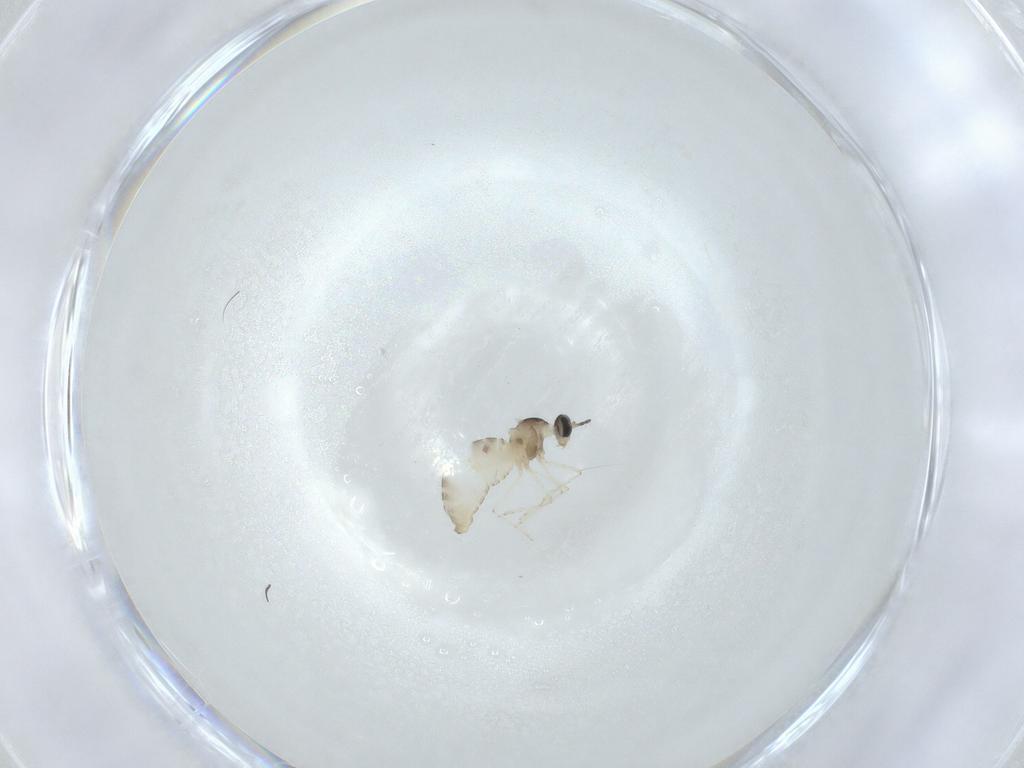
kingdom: Animalia
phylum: Arthropoda
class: Insecta
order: Diptera
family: Cecidomyiidae
